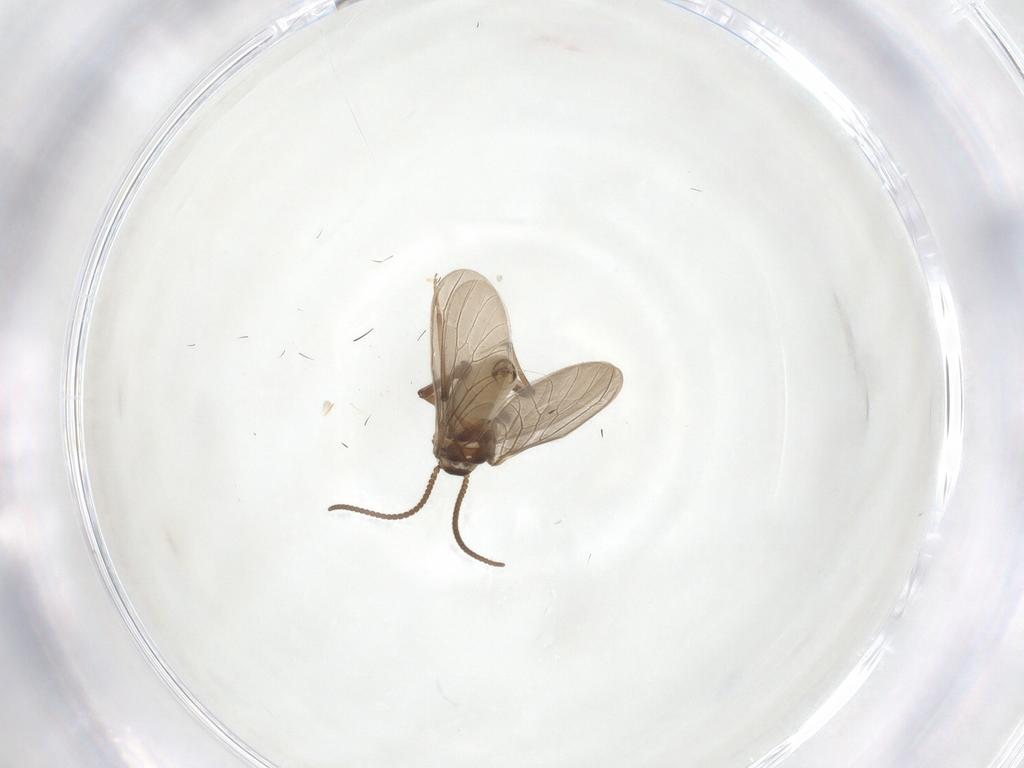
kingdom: Animalia
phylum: Arthropoda
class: Insecta
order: Neuroptera
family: Coniopterygidae
